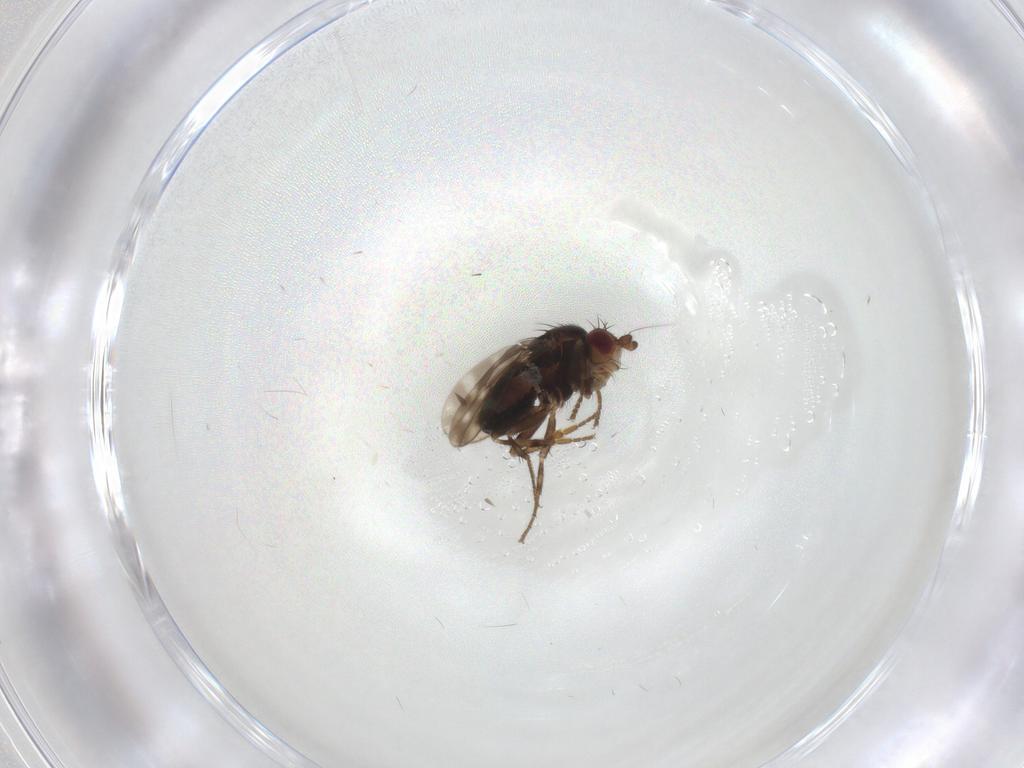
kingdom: Animalia
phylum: Arthropoda
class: Insecta
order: Diptera
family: Sphaeroceridae
